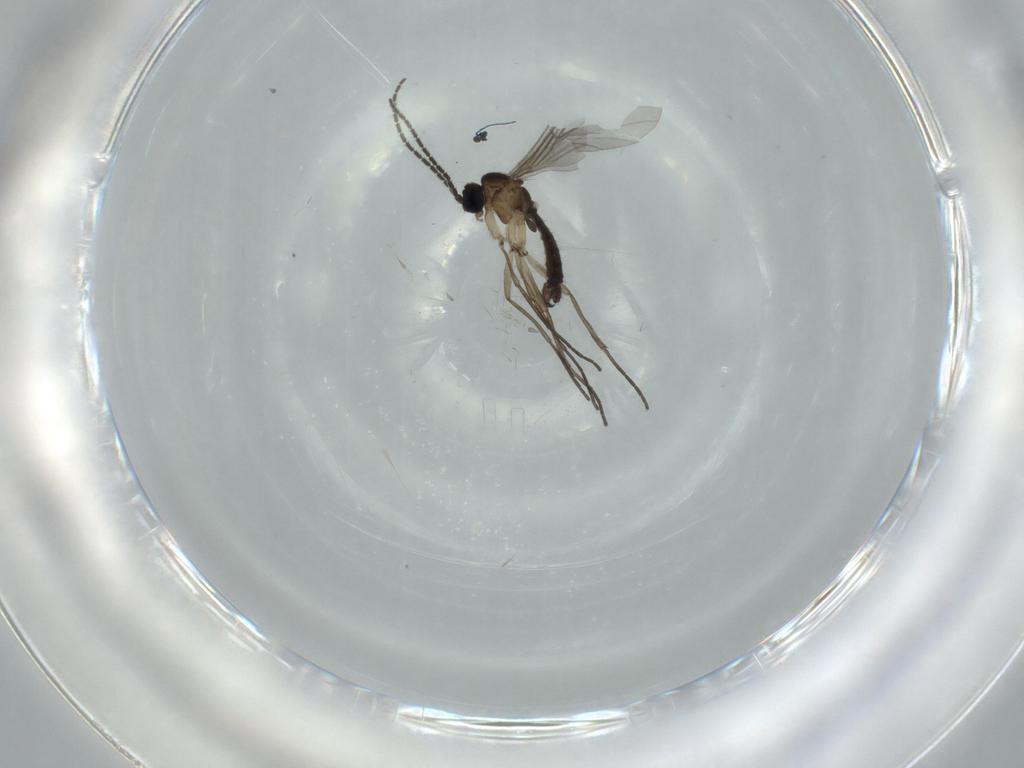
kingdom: Animalia
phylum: Arthropoda
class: Insecta
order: Diptera
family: Sciaridae
